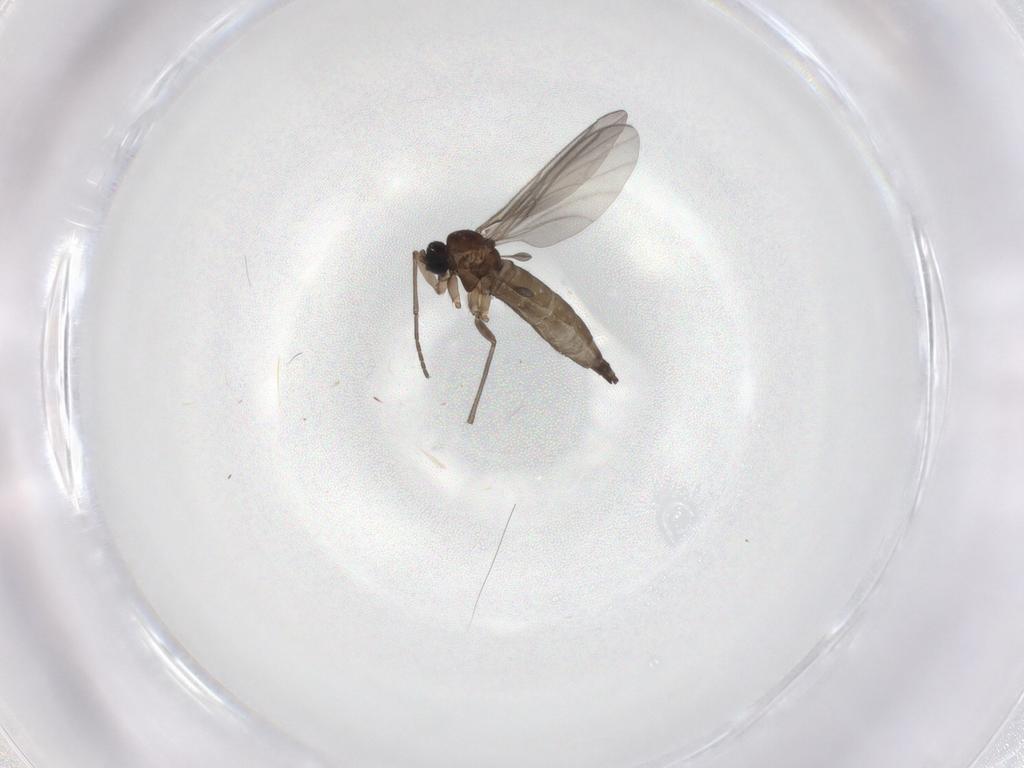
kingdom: Animalia
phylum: Arthropoda
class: Insecta
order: Diptera
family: Sciaridae
